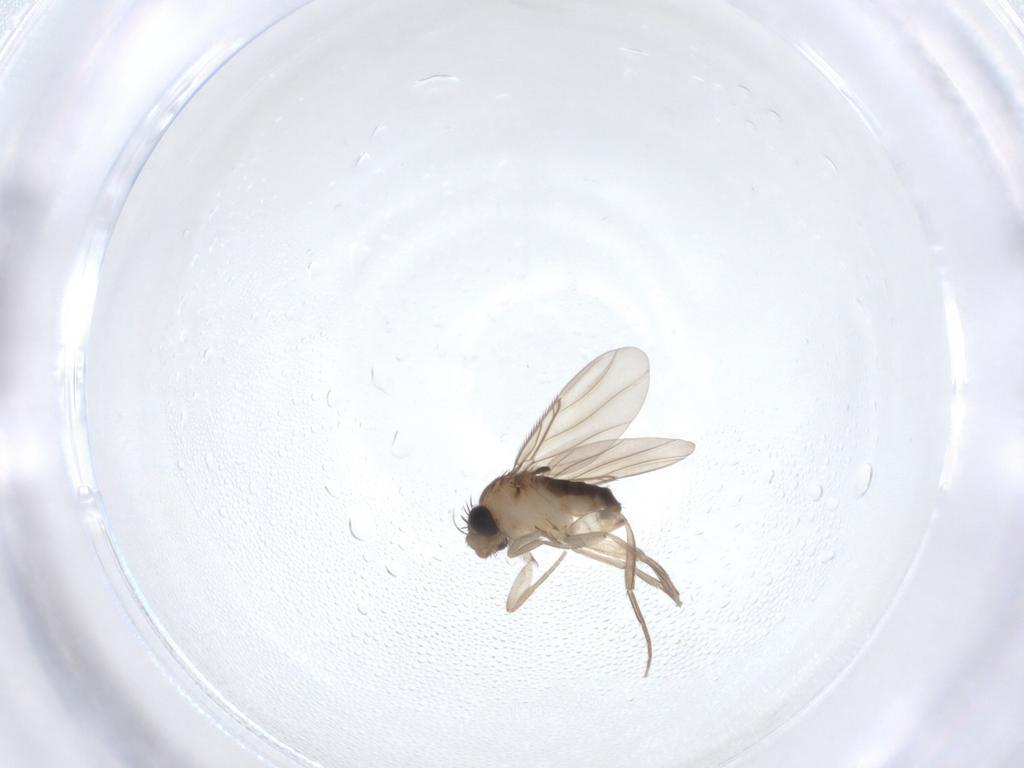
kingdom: Animalia
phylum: Arthropoda
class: Insecta
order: Diptera
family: Phoridae
